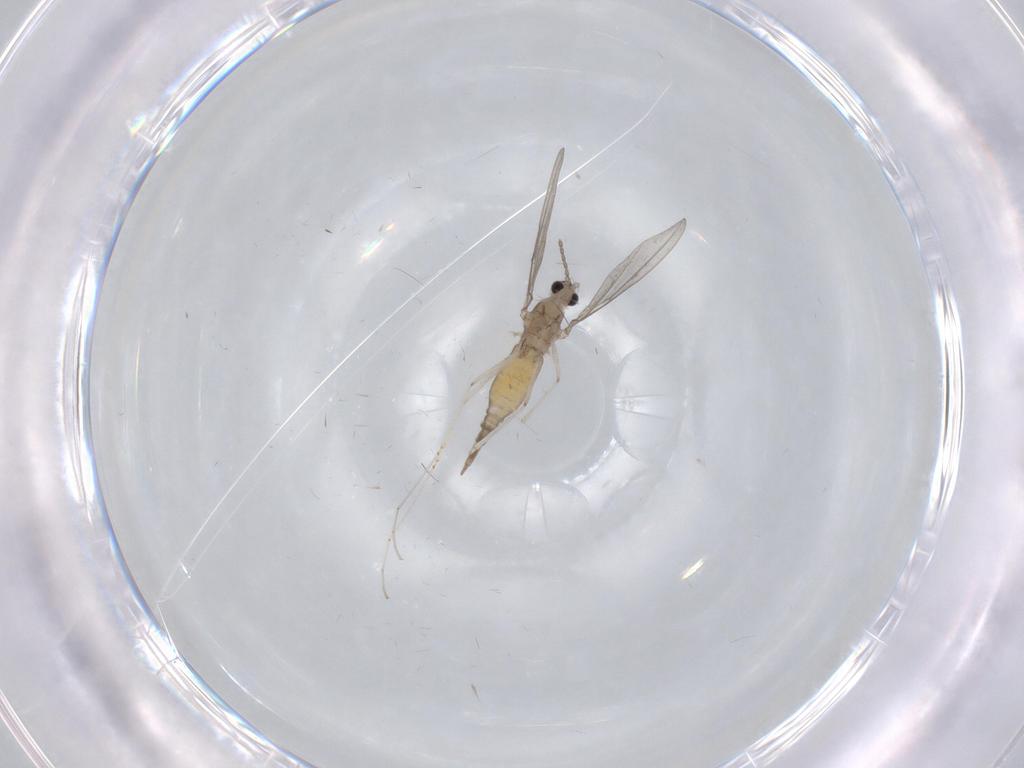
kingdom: Animalia
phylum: Arthropoda
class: Insecta
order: Diptera
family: Cecidomyiidae
